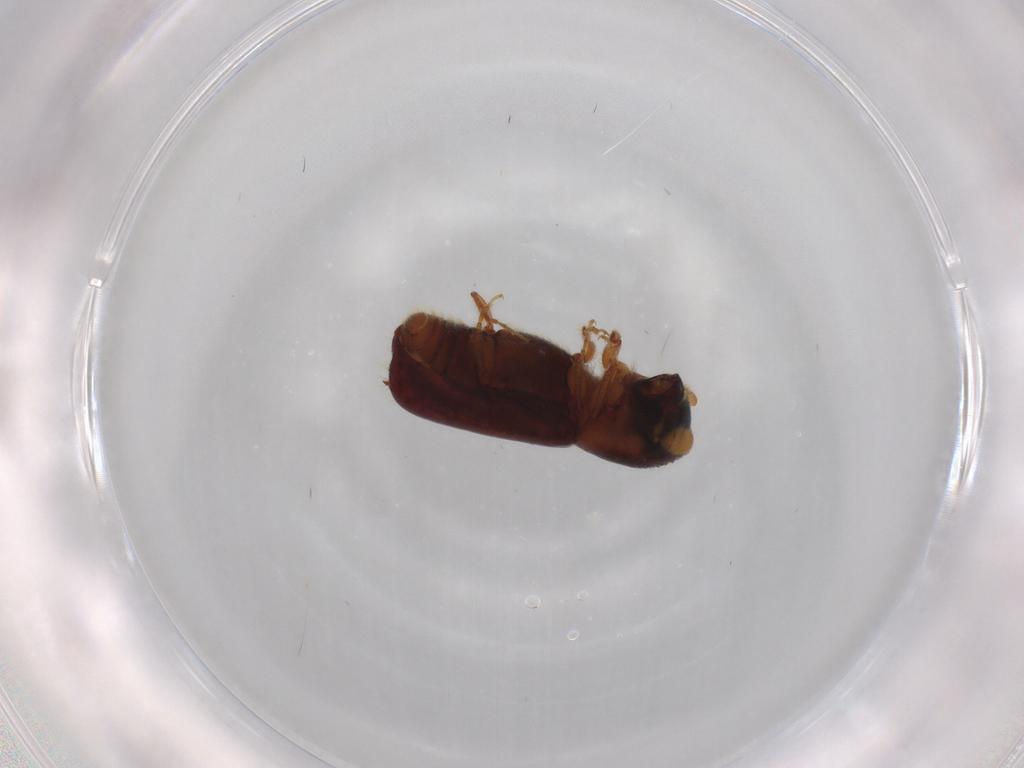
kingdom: Animalia
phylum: Arthropoda
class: Insecta
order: Coleoptera
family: Curculionidae
